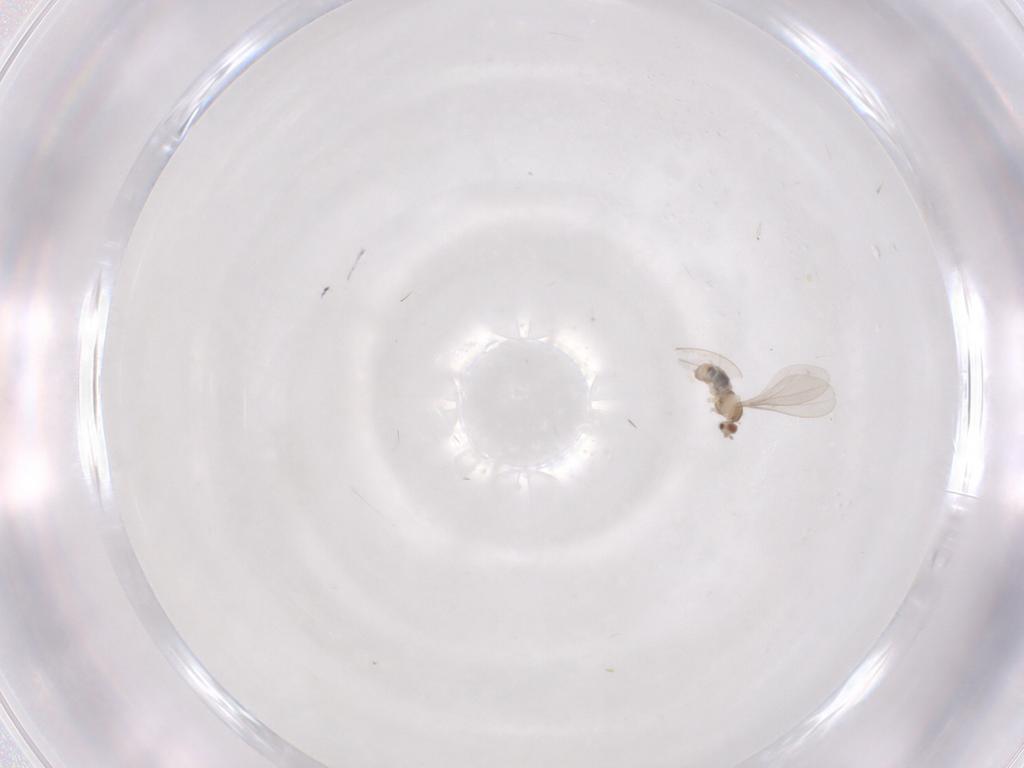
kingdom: Animalia
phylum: Arthropoda
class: Insecta
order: Diptera
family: Cecidomyiidae
